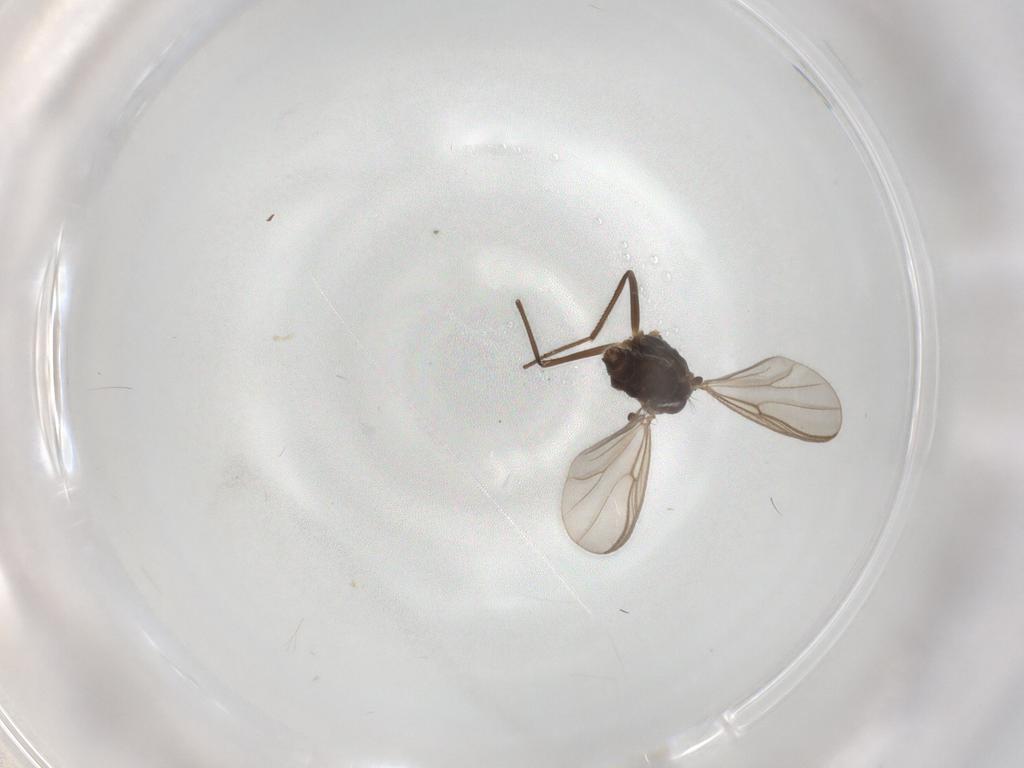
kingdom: Animalia
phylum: Arthropoda
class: Insecta
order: Diptera
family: Chironomidae
